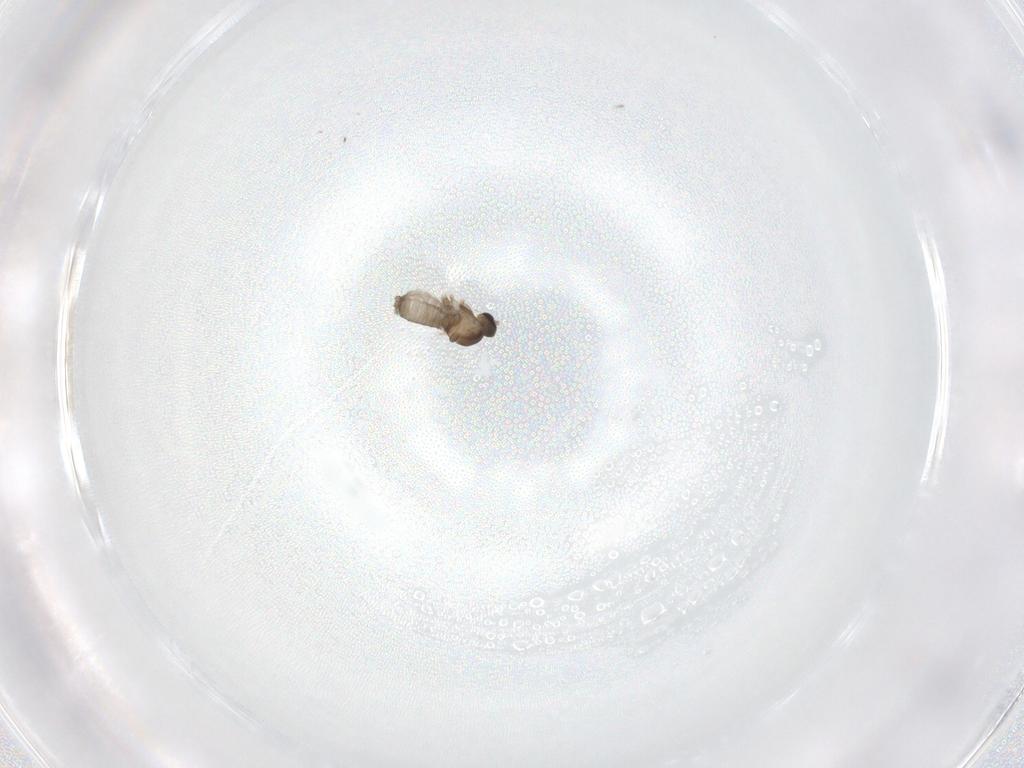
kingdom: Animalia
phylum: Arthropoda
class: Insecta
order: Diptera
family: Cecidomyiidae
